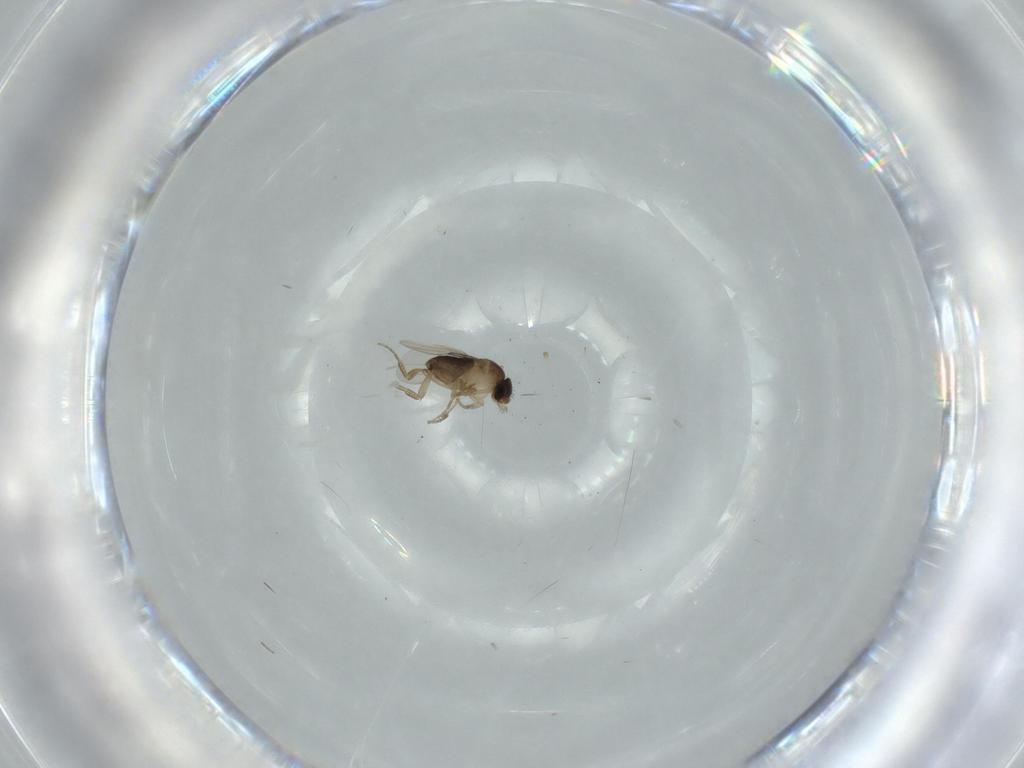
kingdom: Animalia
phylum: Arthropoda
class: Insecta
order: Diptera
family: Phoridae
